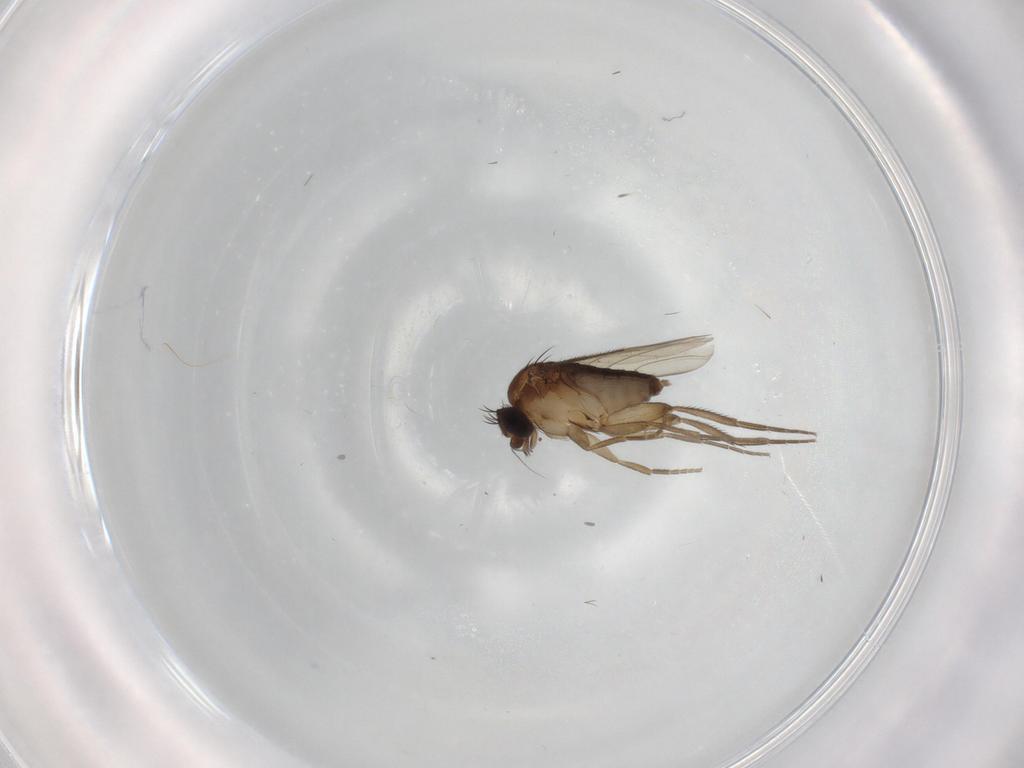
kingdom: Animalia
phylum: Arthropoda
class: Insecta
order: Diptera
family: Phoridae
